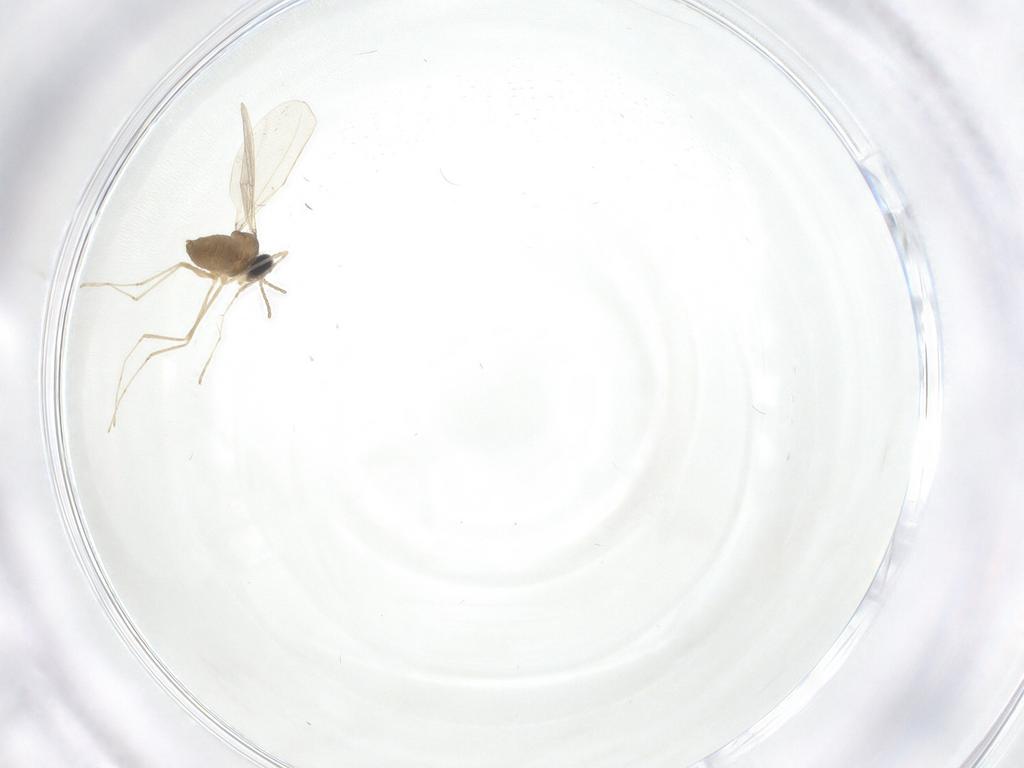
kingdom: Animalia
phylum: Arthropoda
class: Insecta
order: Diptera
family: Cecidomyiidae
